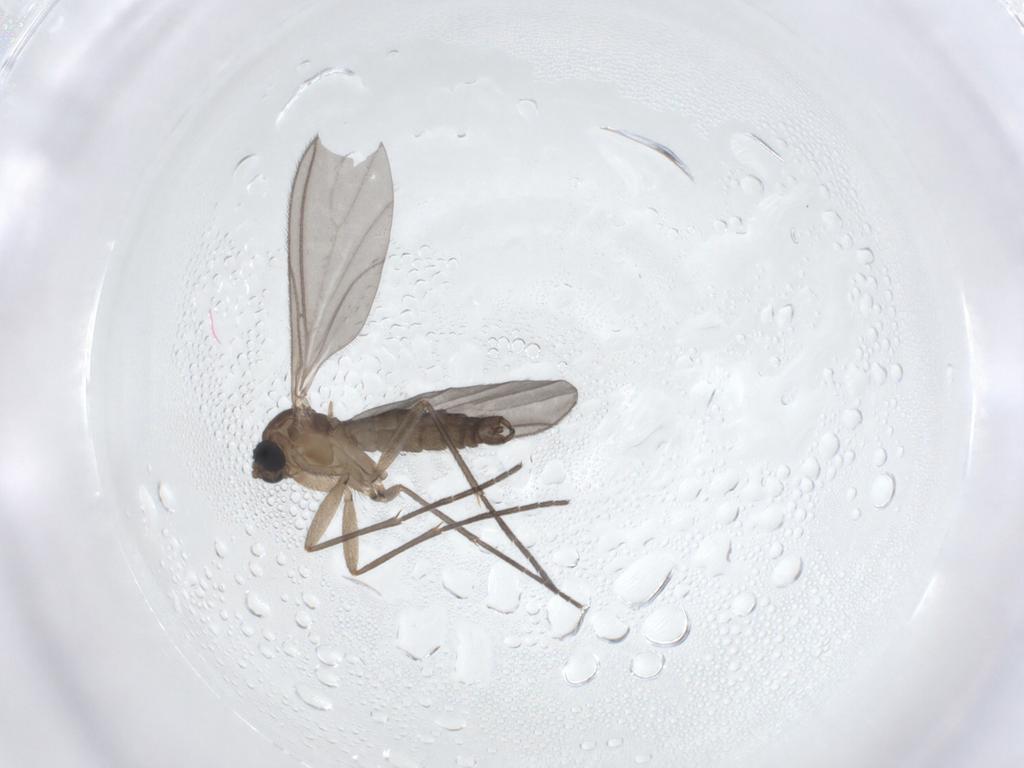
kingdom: Animalia
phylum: Arthropoda
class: Insecta
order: Diptera
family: Sciaridae
